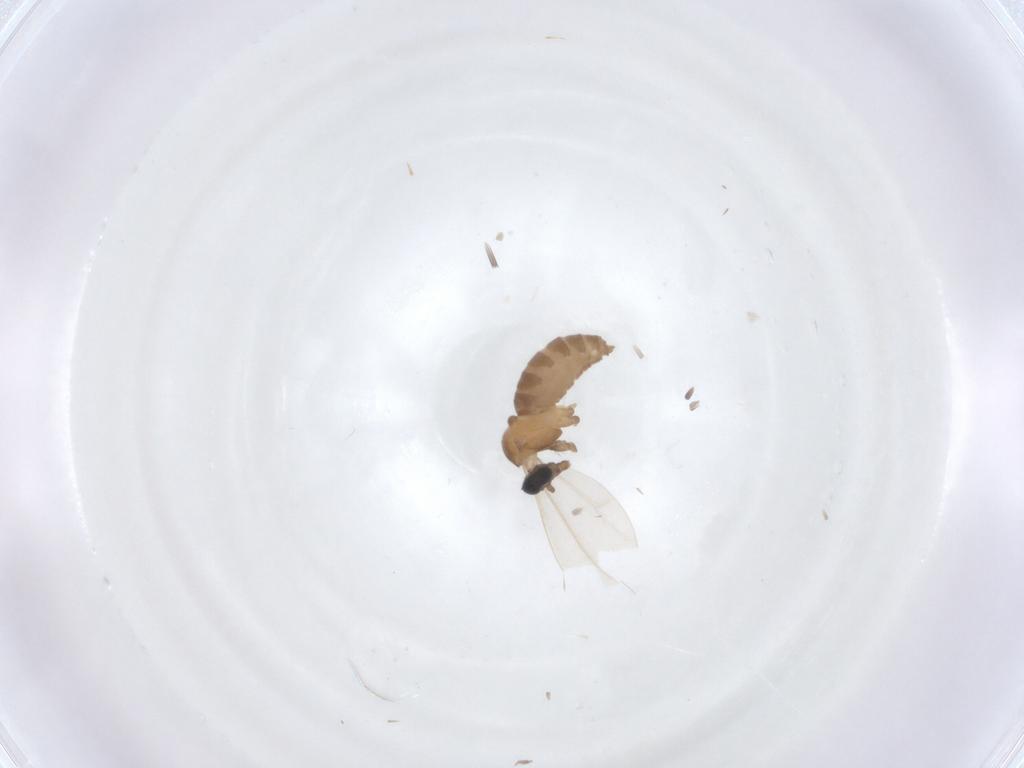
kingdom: Animalia
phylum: Arthropoda
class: Insecta
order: Diptera
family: Cecidomyiidae
